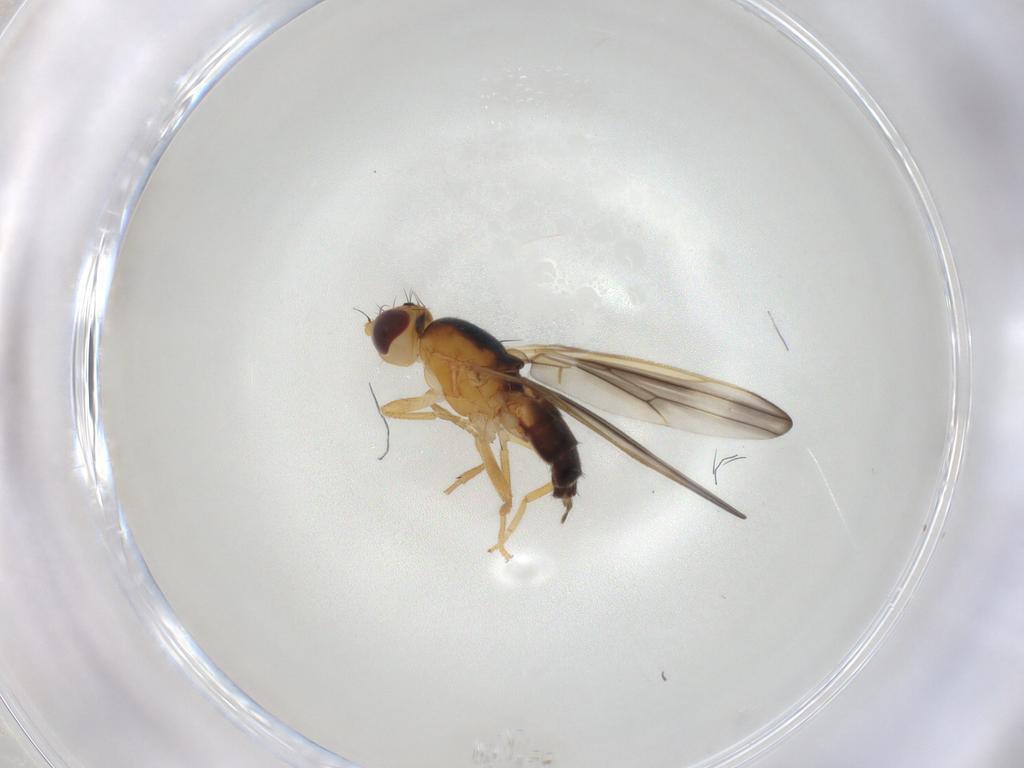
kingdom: Animalia
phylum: Arthropoda
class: Insecta
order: Diptera
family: Neurochaetidae
